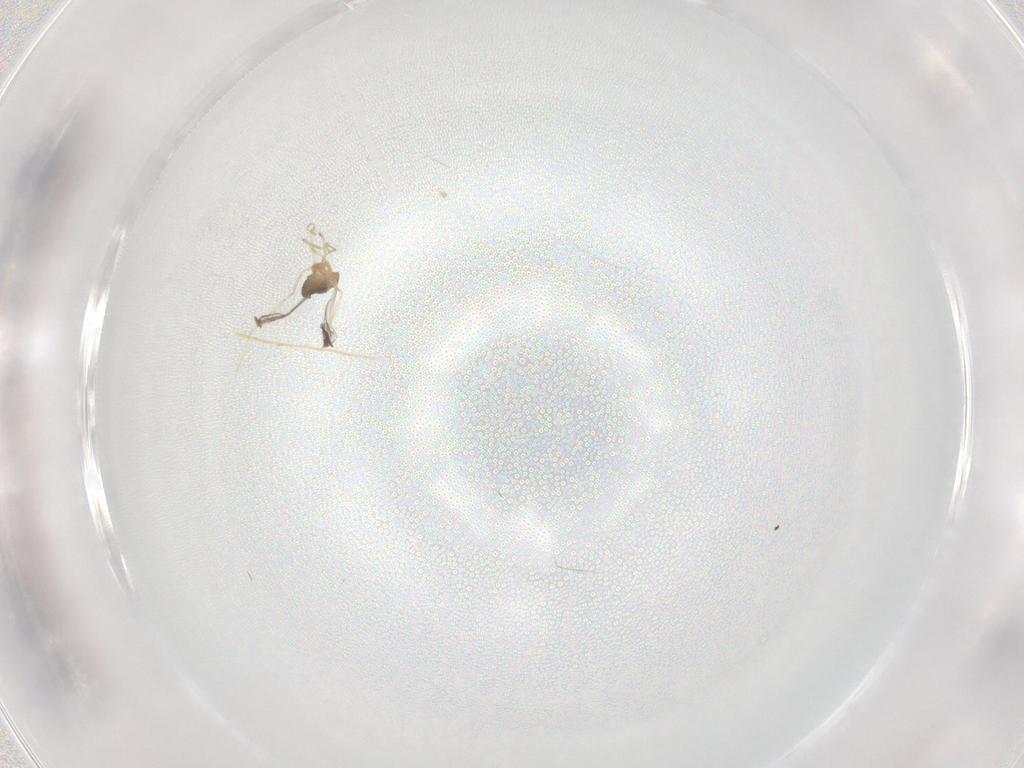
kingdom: Animalia
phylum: Arthropoda
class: Insecta
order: Diptera
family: Cecidomyiidae
